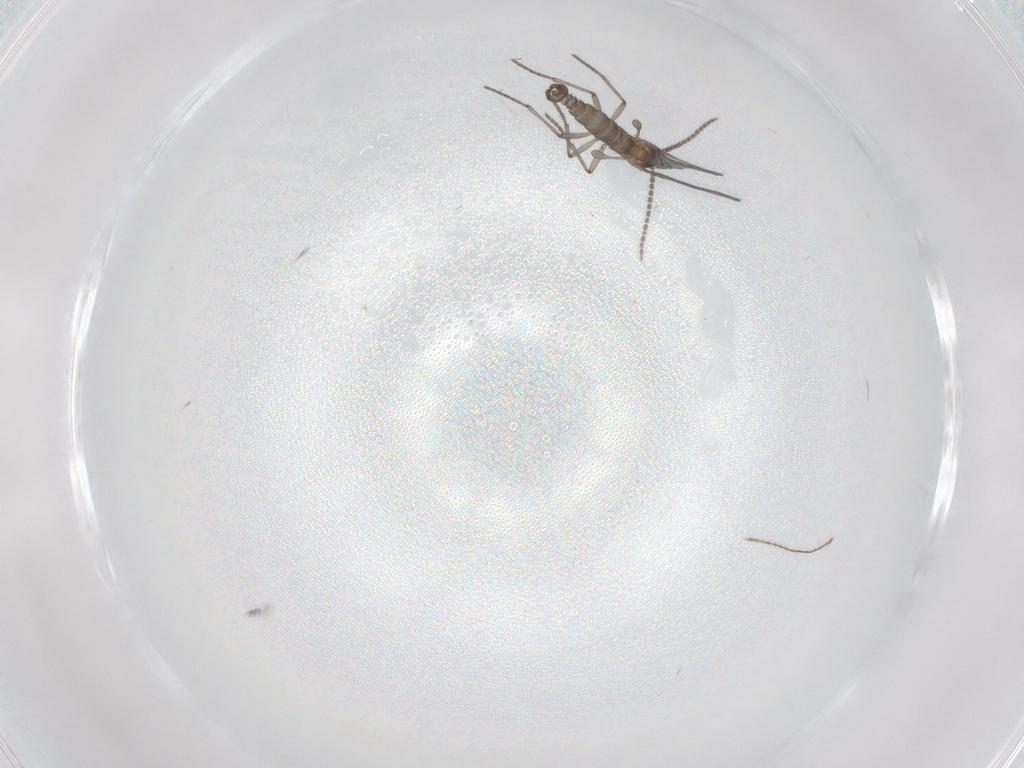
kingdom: Animalia
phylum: Arthropoda
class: Insecta
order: Diptera
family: Sciaridae
